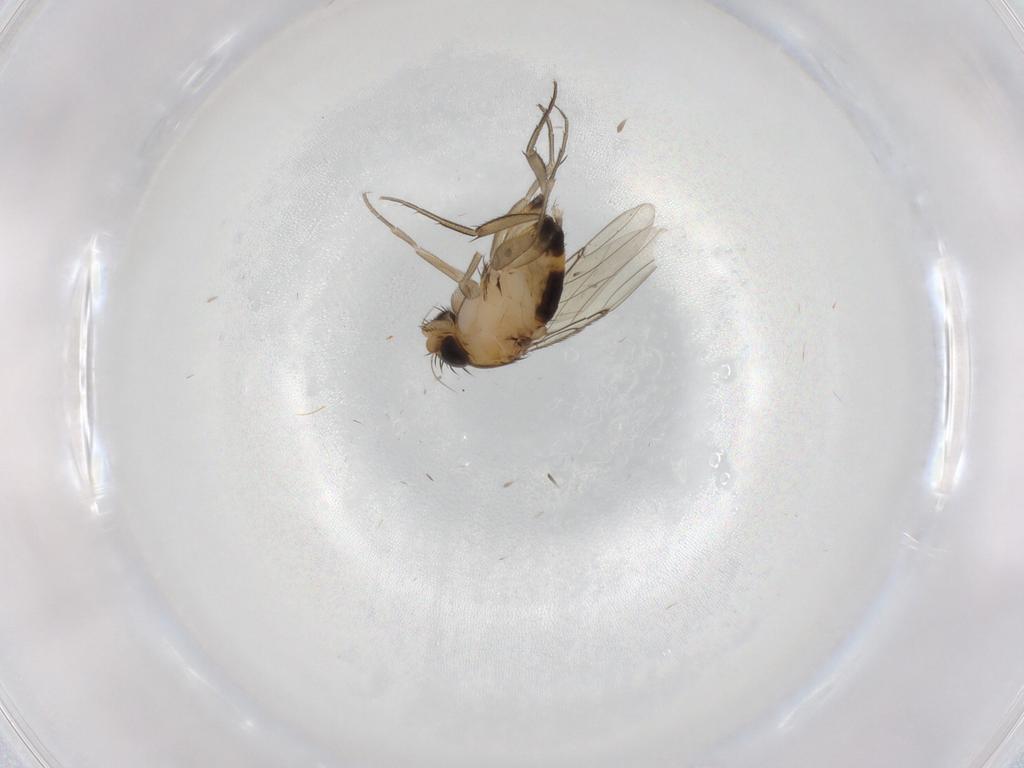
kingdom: Animalia
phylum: Arthropoda
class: Insecta
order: Diptera
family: Phoridae
